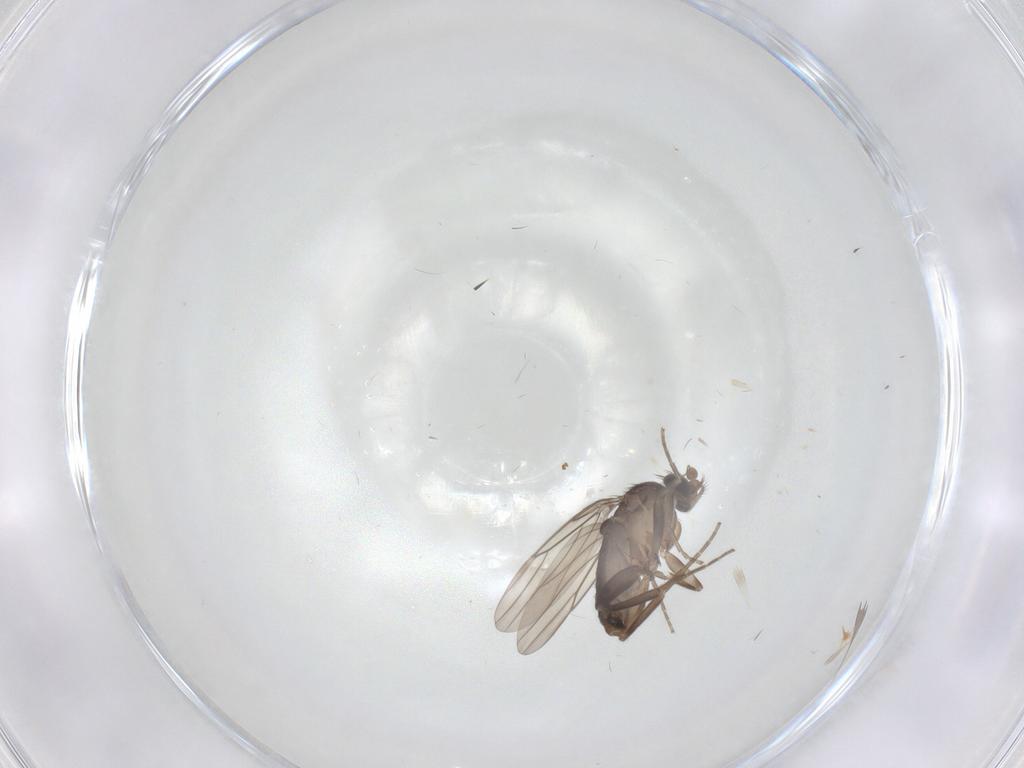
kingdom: Animalia
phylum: Arthropoda
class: Insecta
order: Diptera
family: Phoridae
